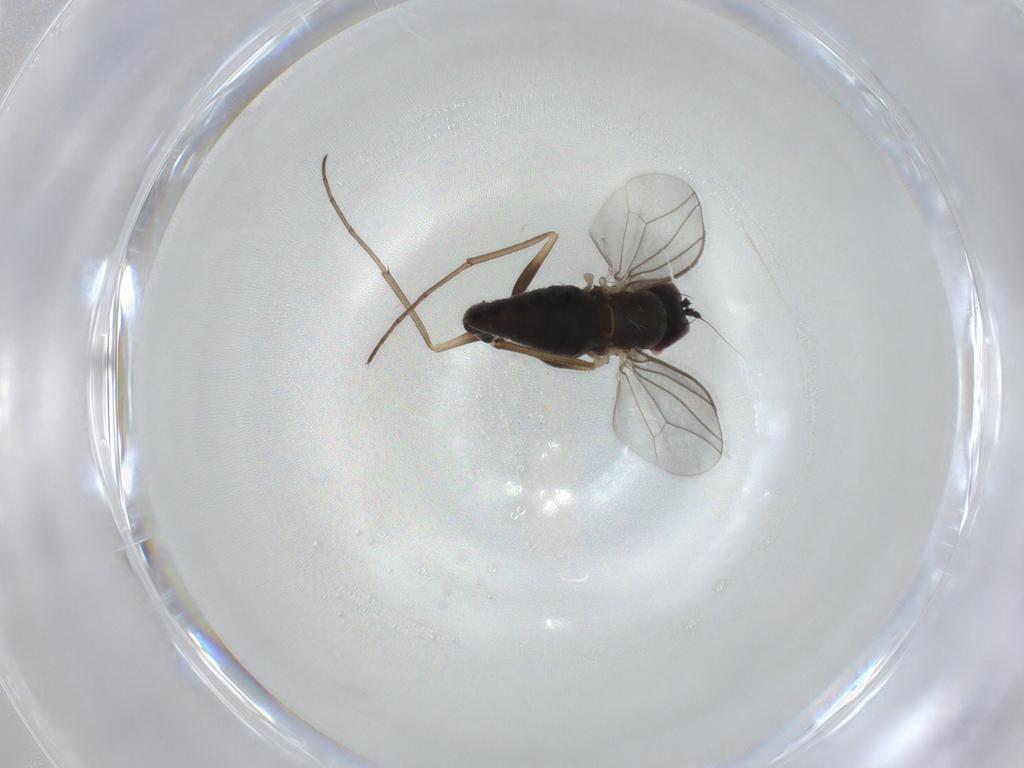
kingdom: Animalia
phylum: Arthropoda
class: Insecta
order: Diptera
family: Dolichopodidae
